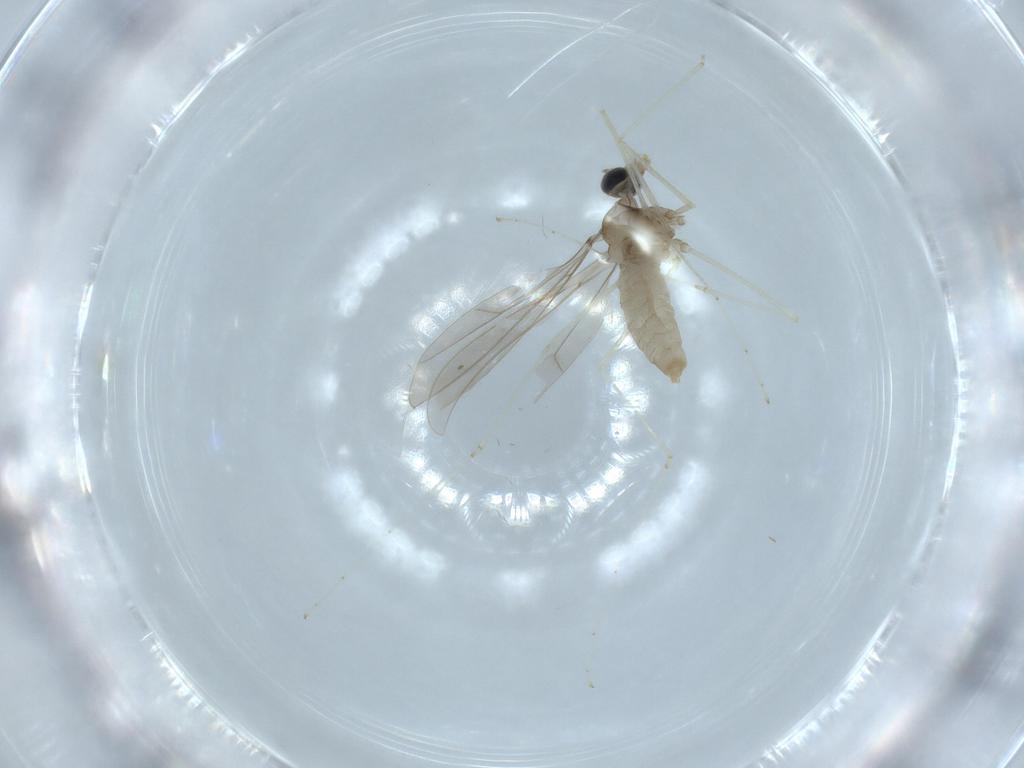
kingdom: Animalia
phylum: Arthropoda
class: Insecta
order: Diptera
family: Cecidomyiidae
